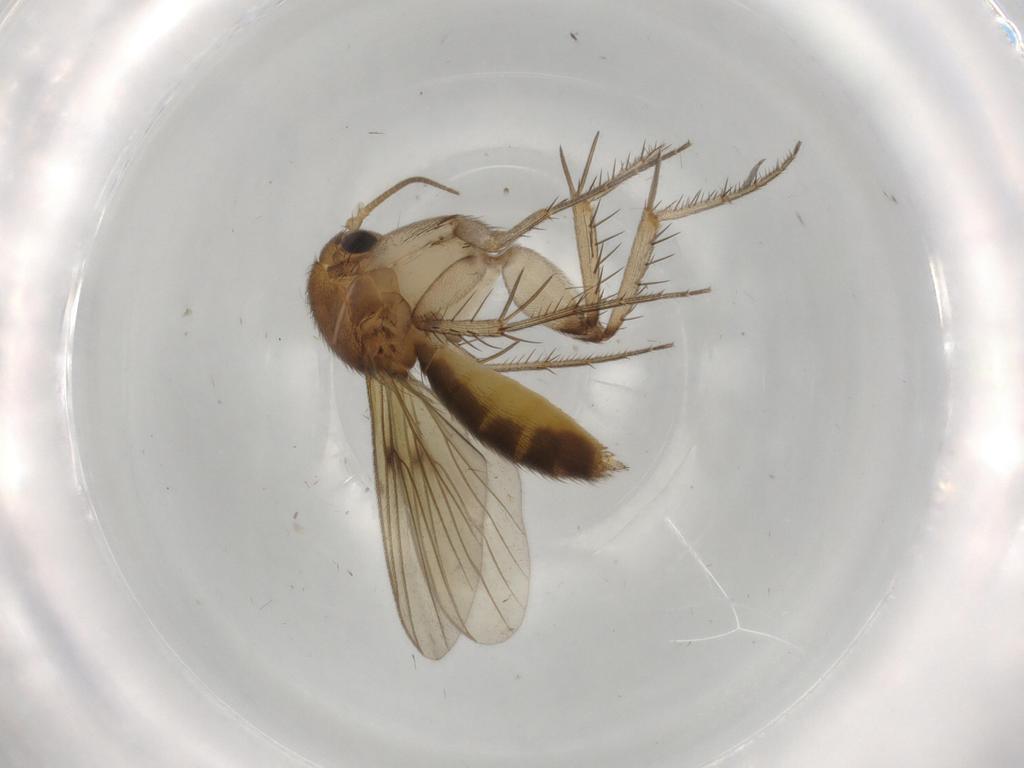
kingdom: Animalia
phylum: Arthropoda
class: Insecta
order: Diptera
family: Mycetophilidae
